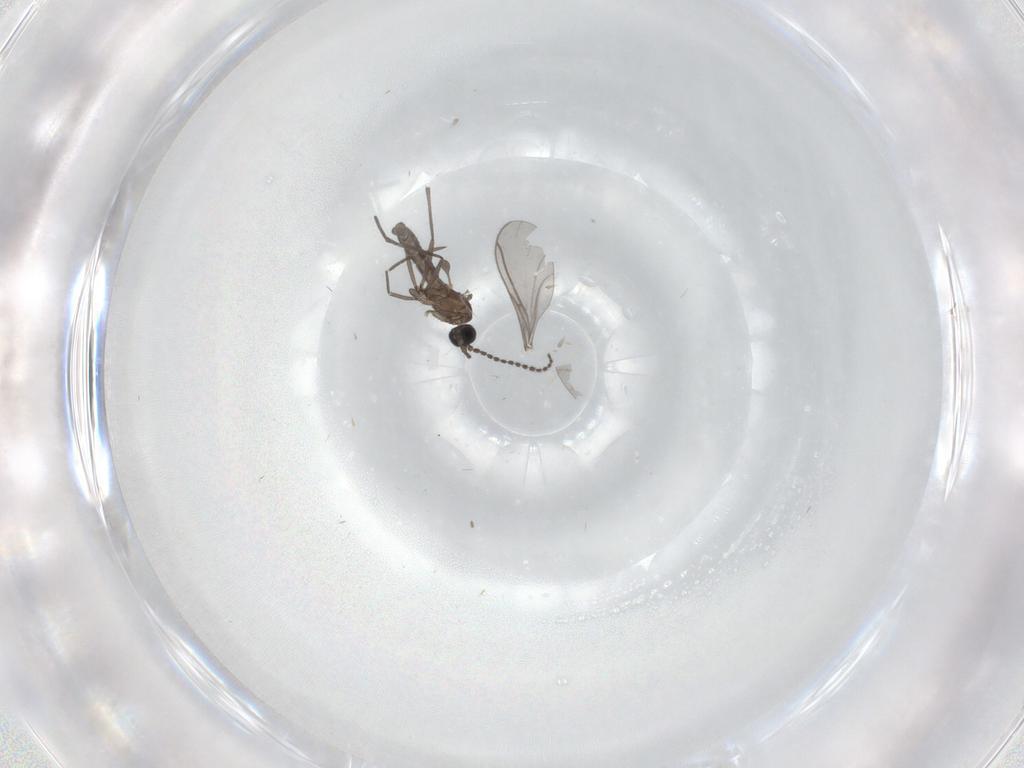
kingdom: Animalia
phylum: Arthropoda
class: Insecta
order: Diptera
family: Cecidomyiidae
